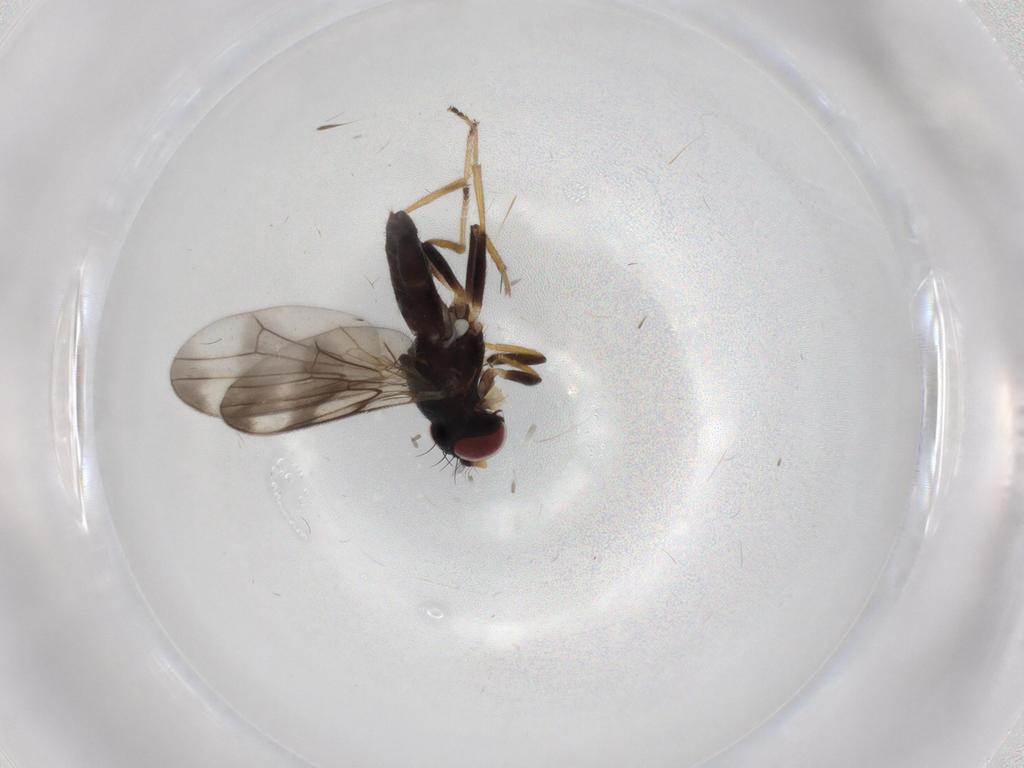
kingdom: Animalia
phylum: Arthropoda
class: Insecta
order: Diptera
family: Periscelididae
